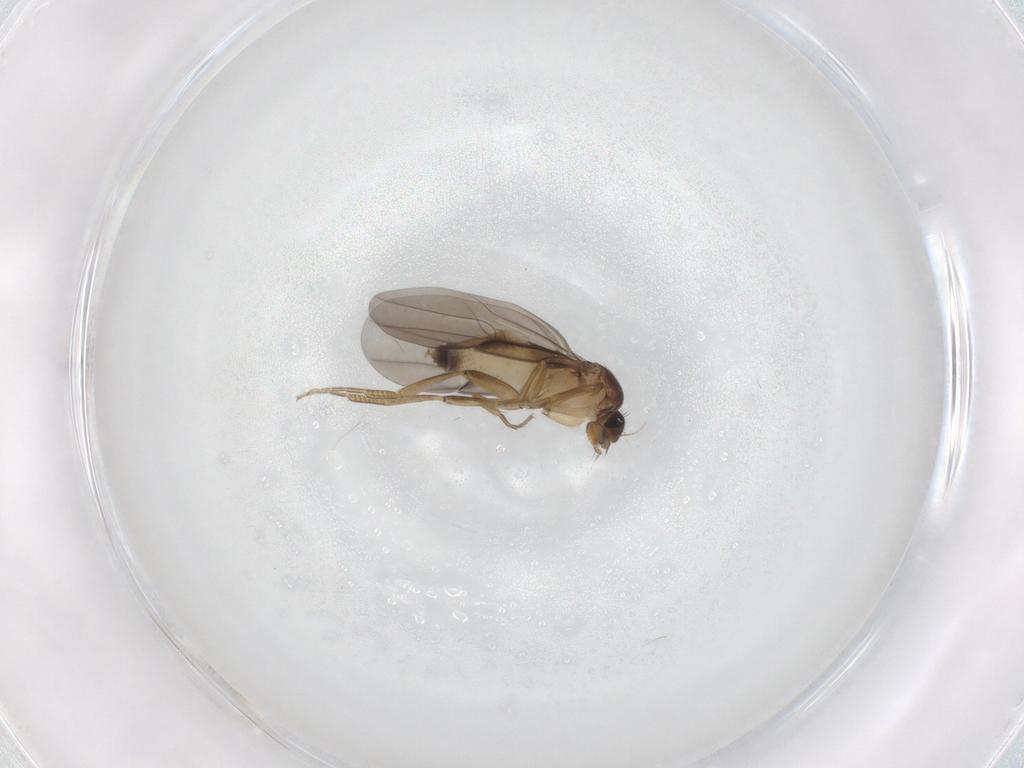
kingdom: Animalia
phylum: Arthropoda
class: Insecta
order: Diptera
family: Phoridae
